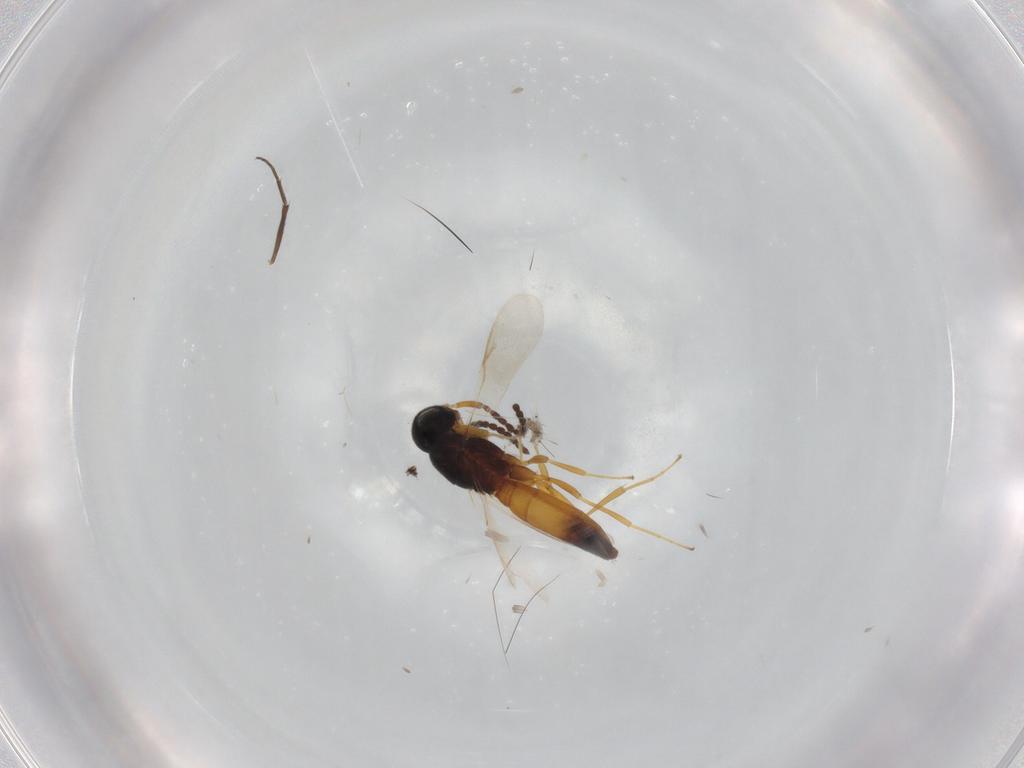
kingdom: Animalia
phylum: Arthropoda
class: Insecta
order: Hymenoptera
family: Scelionidae
